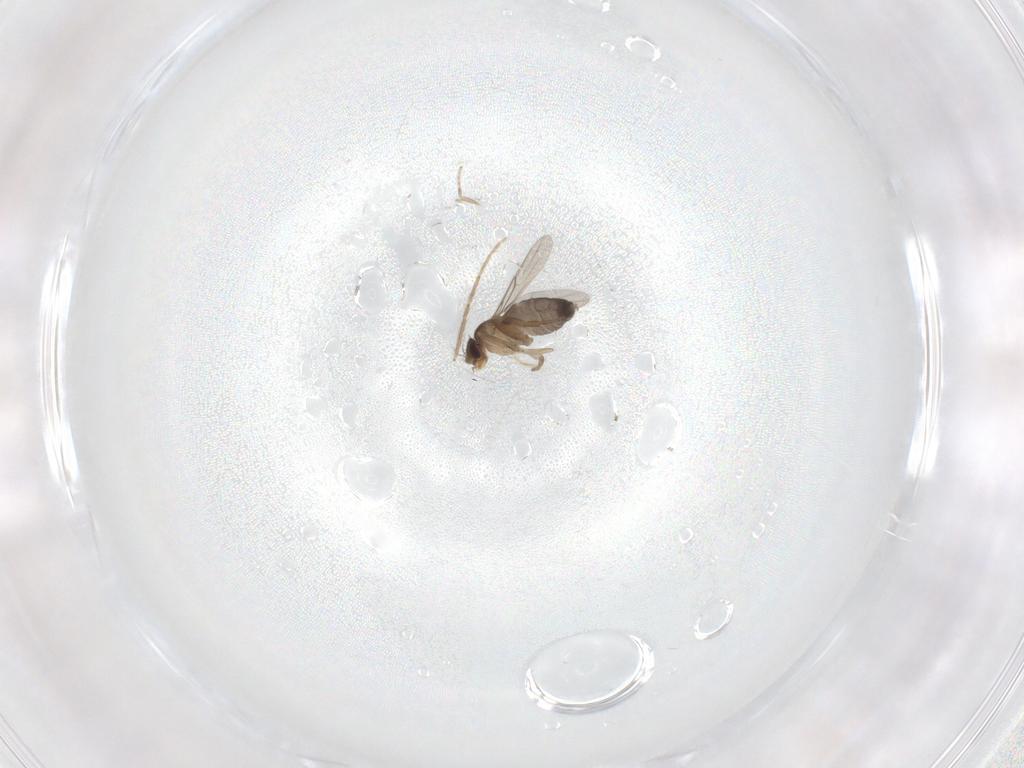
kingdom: Animalia
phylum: Arthropoda
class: Insecta
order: Diptera
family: Phoridae
